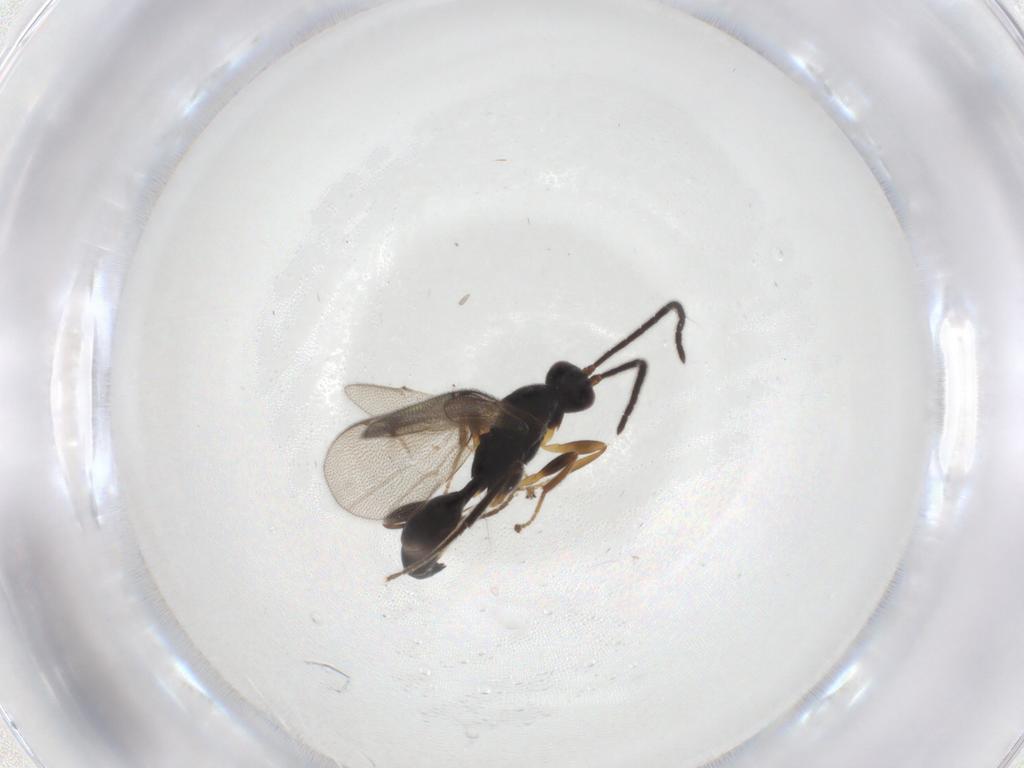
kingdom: Animalia
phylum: Arthropoda
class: Insecta
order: Hymenoptera
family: Proctotrupidae
